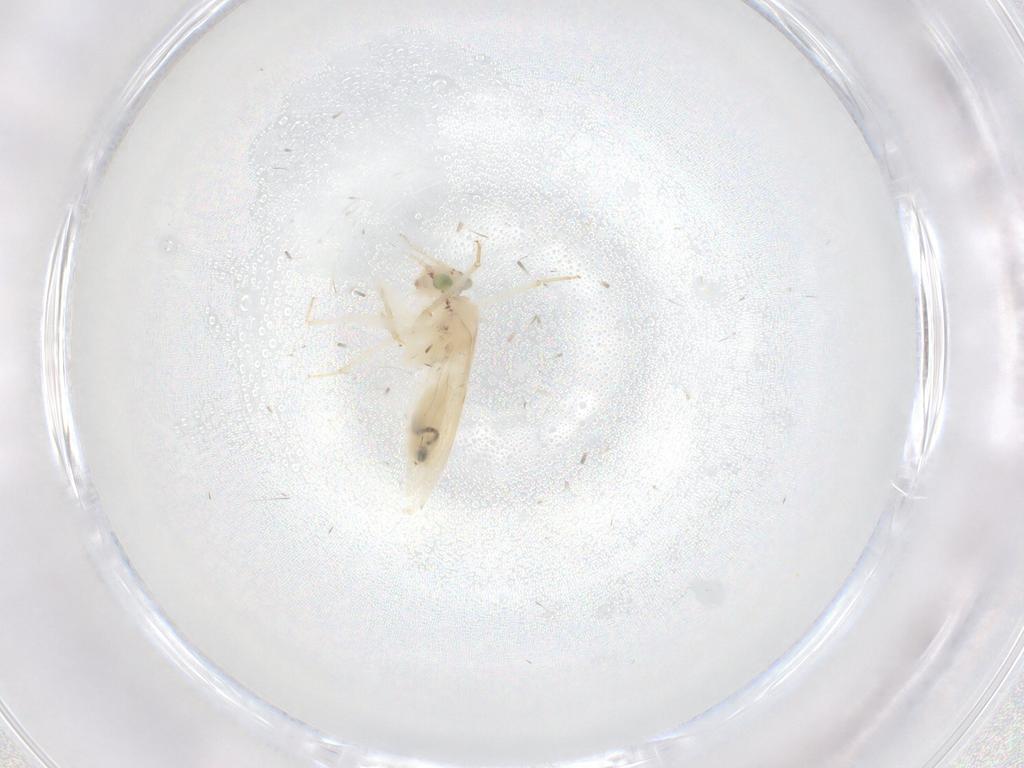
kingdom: Animalia
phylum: Arthropoda
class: Insecta
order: Psocodea
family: Lepidopsocidae
